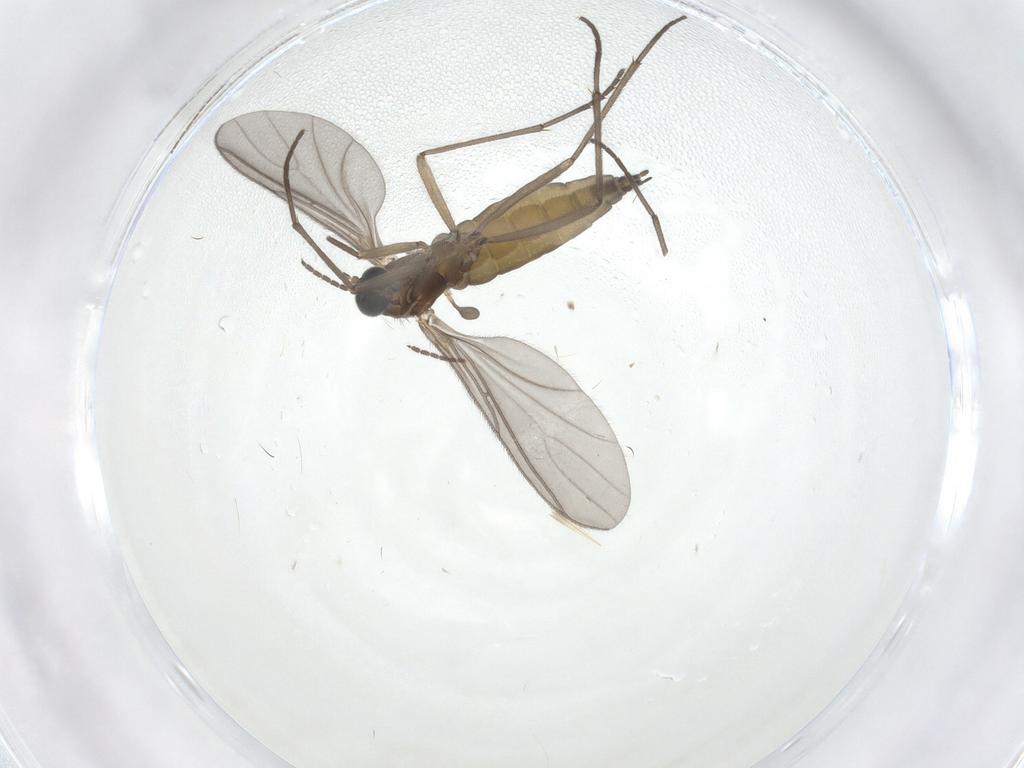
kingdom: Animalia
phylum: Arthropoda
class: Insecta
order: Diptera
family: Sciaridae
